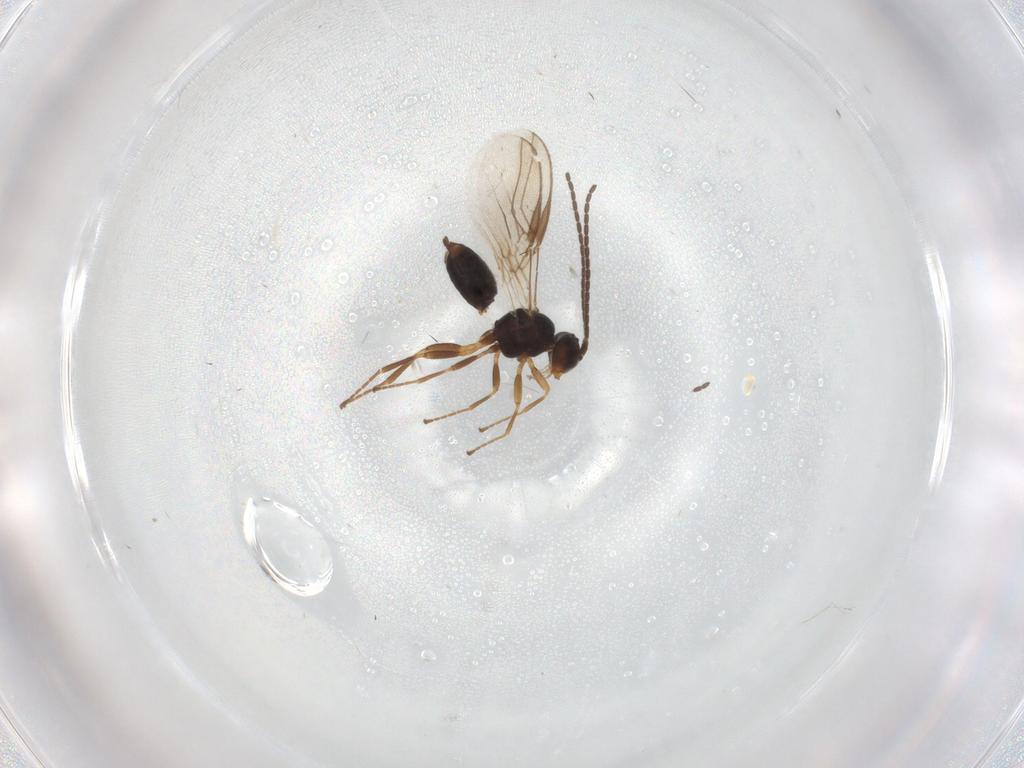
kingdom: Animalia
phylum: Arthropoda
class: Insecta
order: Hymenoptera
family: Braconidae
